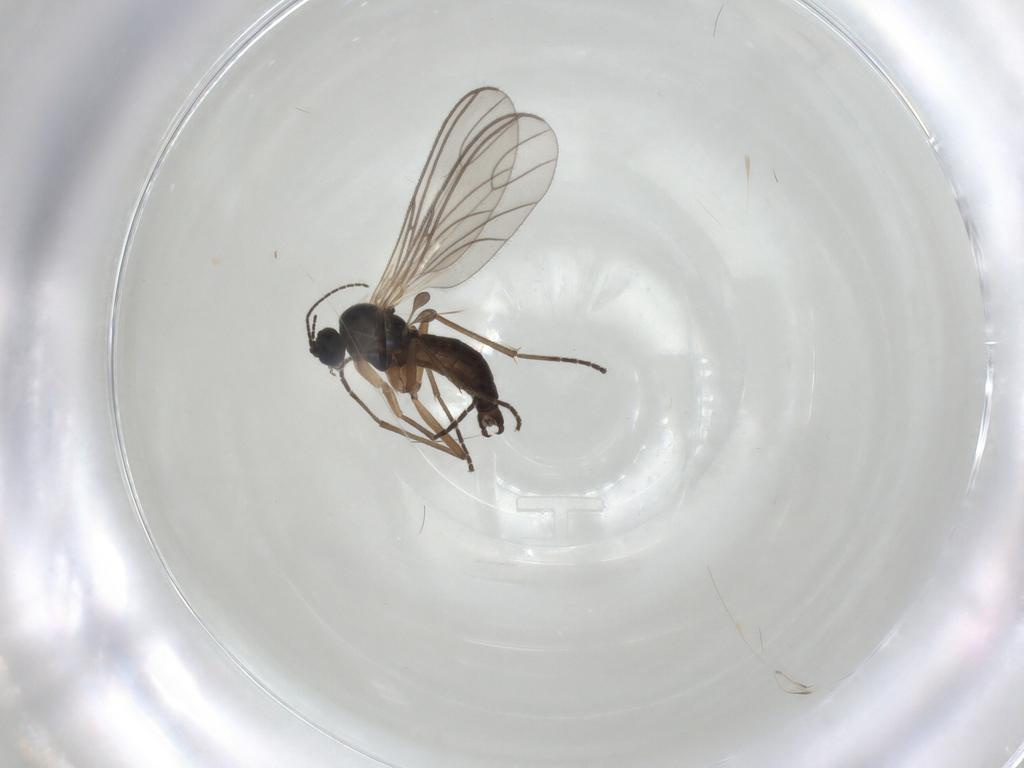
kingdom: Animalia
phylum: Arthropoda
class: Insecta
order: Diptera
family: Sciaridae
